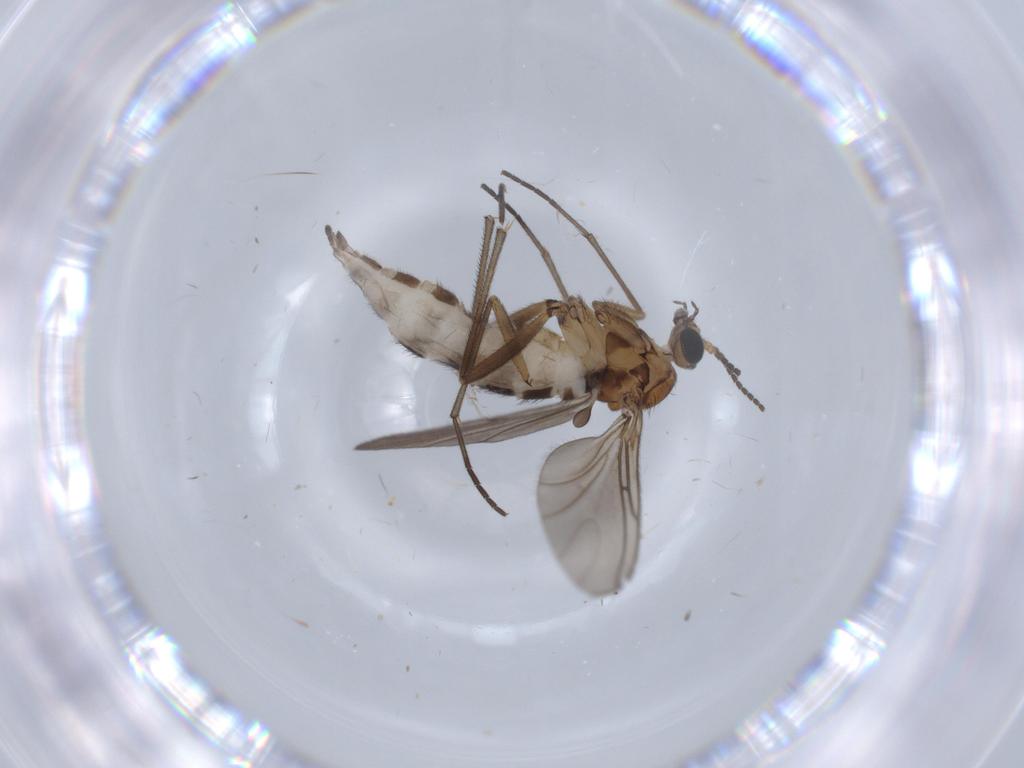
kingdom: Animalia
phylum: Arthropoda
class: Insecta
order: Diptera
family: Sciaridae
